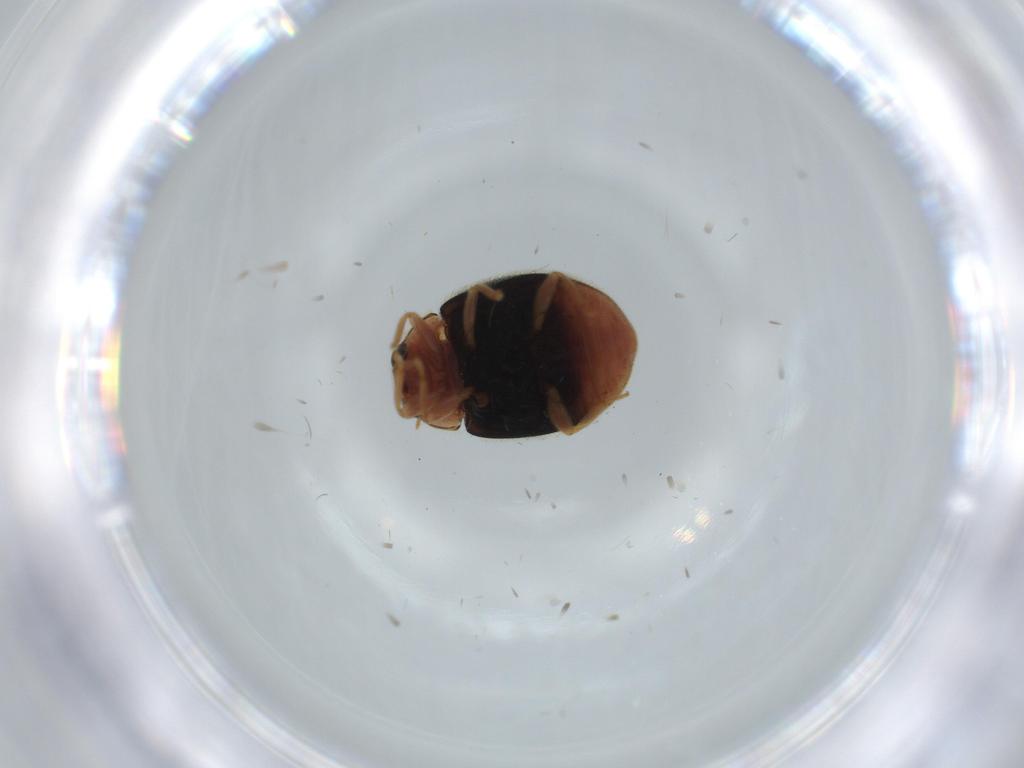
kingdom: Animalia
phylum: Arthropoda
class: Insecta
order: Coleoptera
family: Coccinellidae
